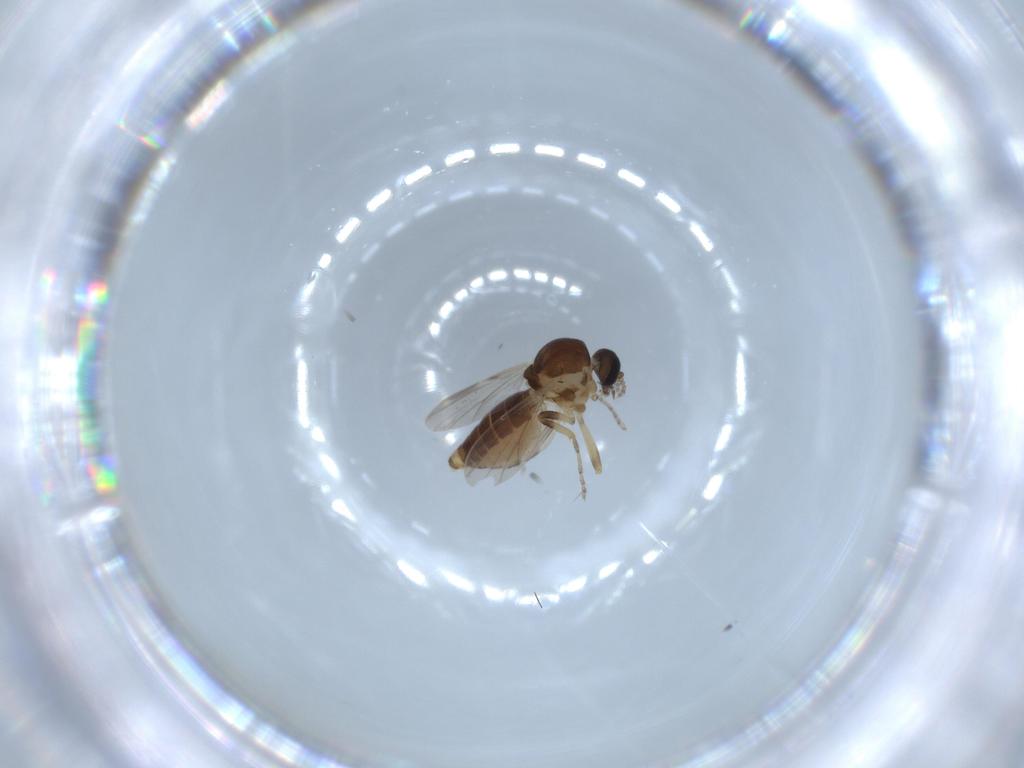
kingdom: Animalia
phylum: Arthropoda
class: Insecta
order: Diptera
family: Ceratopogonidae
